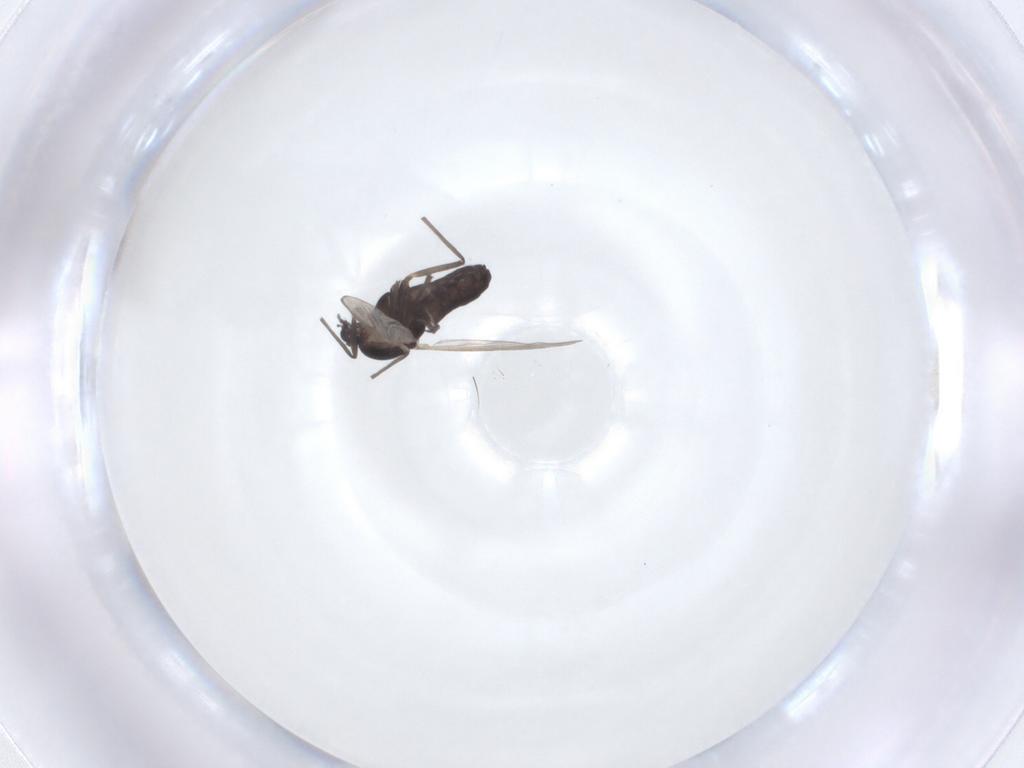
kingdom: Animalia
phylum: Arthropoda
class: Insecta
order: Diptera
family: Chironomidae
